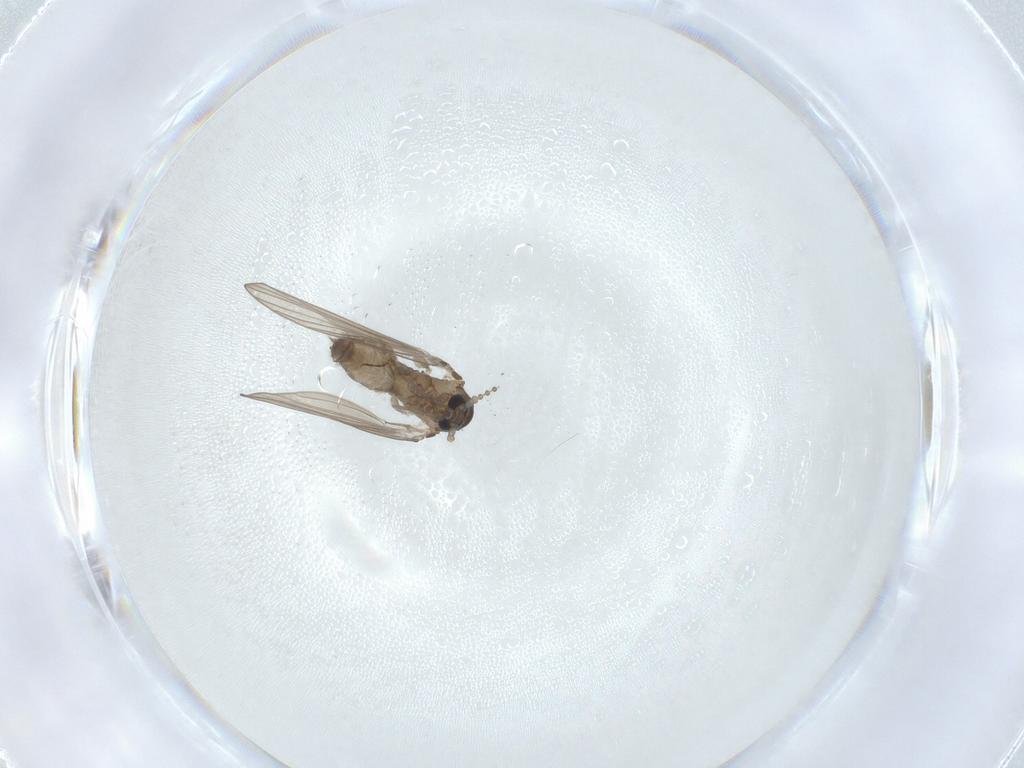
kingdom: Animalia
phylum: Arthropoda
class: Insecta
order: Diptera
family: Psychodidae
